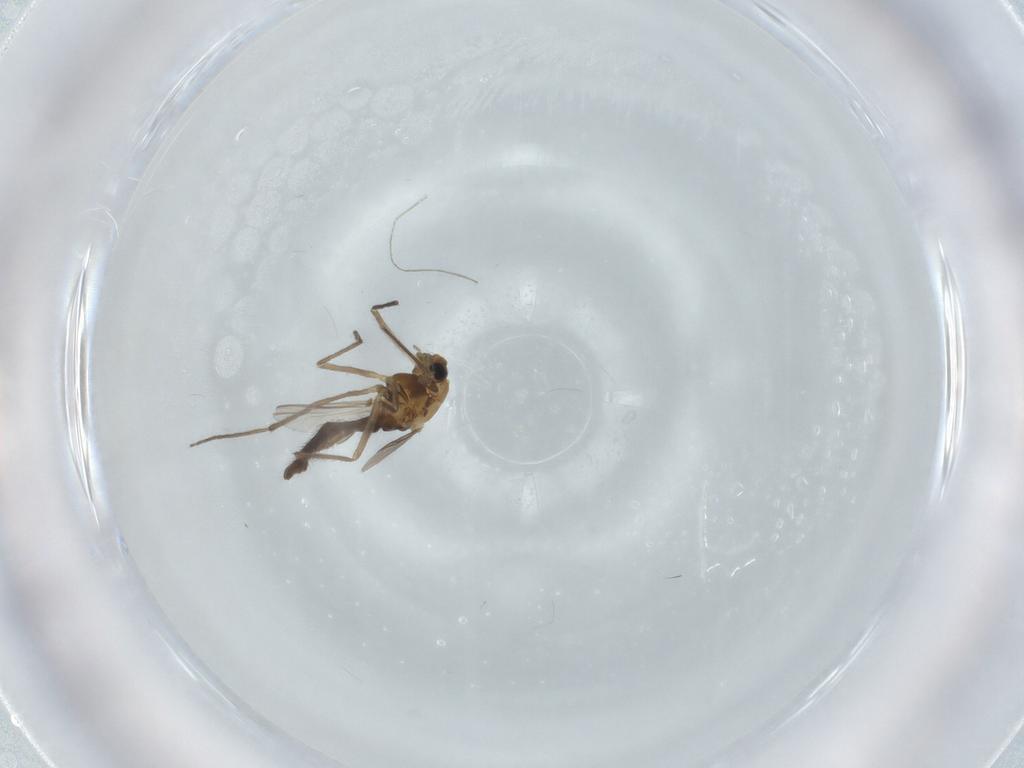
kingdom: Animalia
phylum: Arthropoda
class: Insecta
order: Diptera
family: Chironomidae
